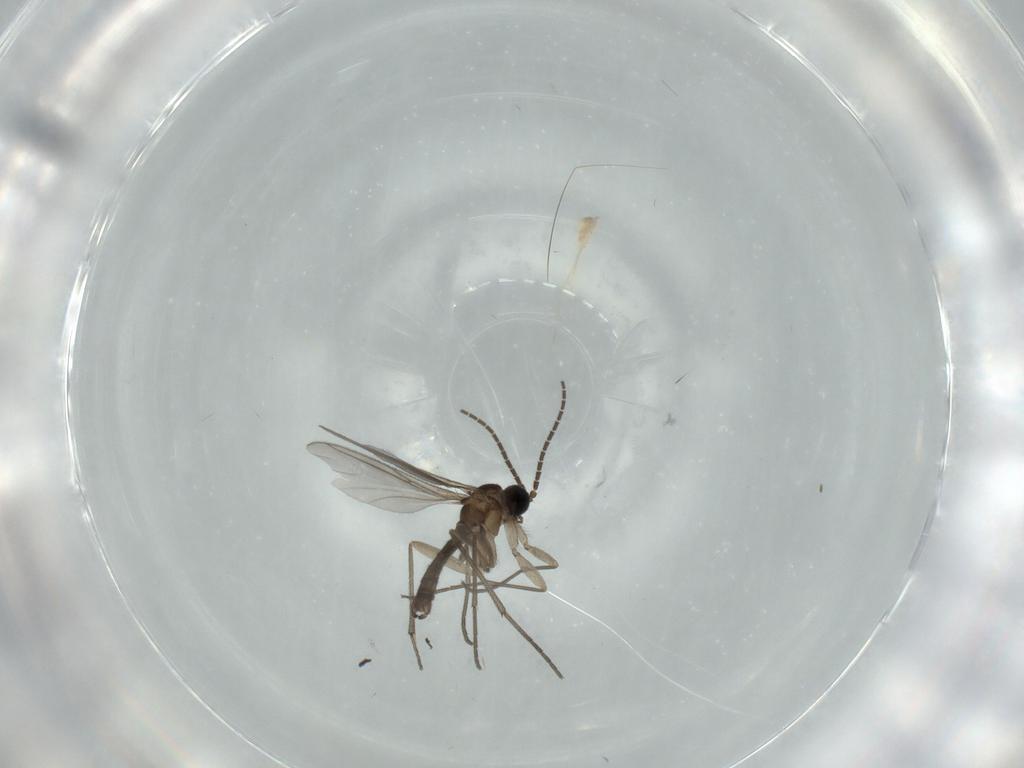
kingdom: Animalia
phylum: Arthropoda
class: Insecta
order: Diptera
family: Sciaridae
